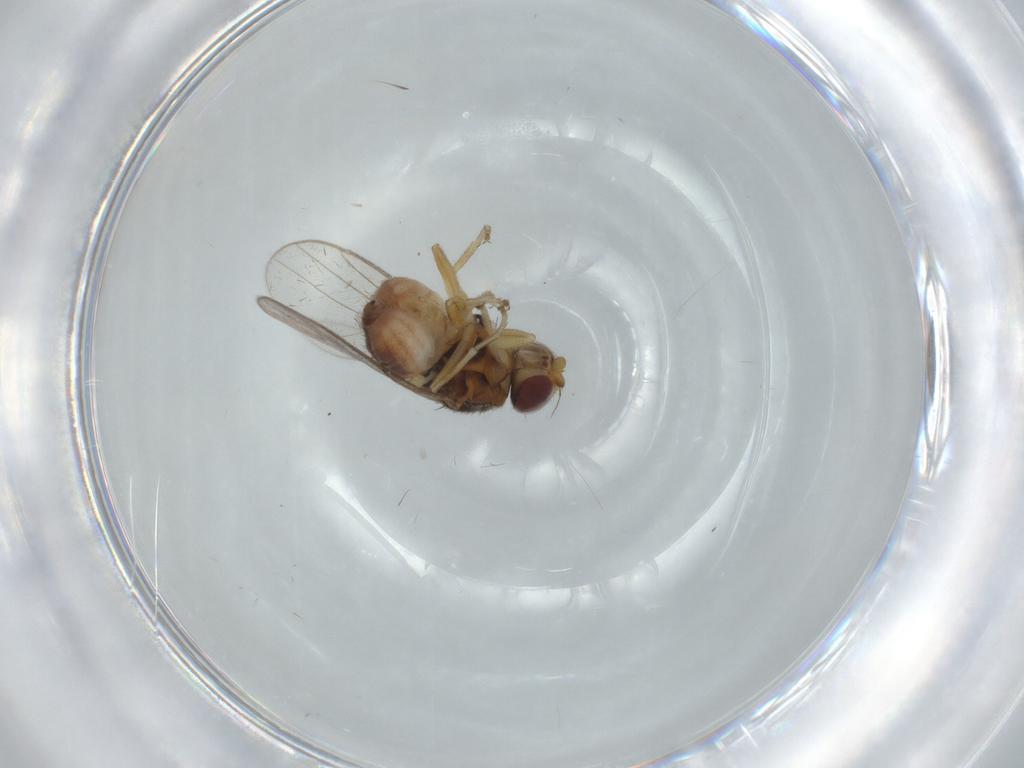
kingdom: Animalia
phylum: Arthropoda
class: Insecta
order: Diptera
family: Chloropidae
